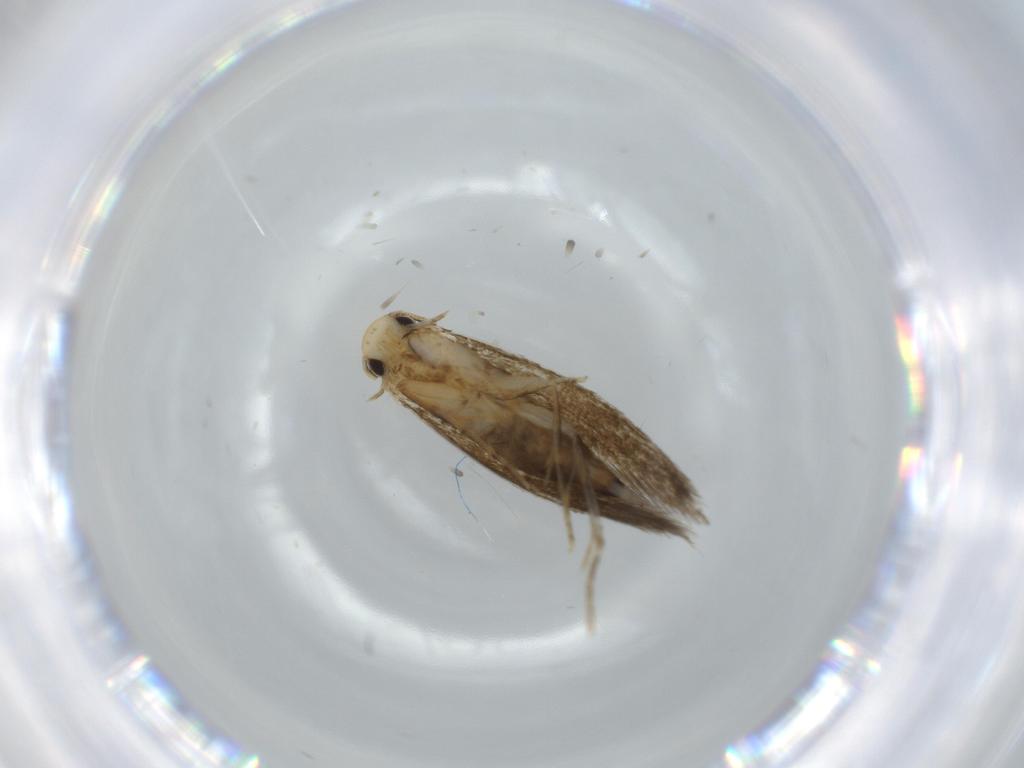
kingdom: Animalia
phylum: Arthropoda
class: Insecta
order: Lepidoptera
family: Tineidae
